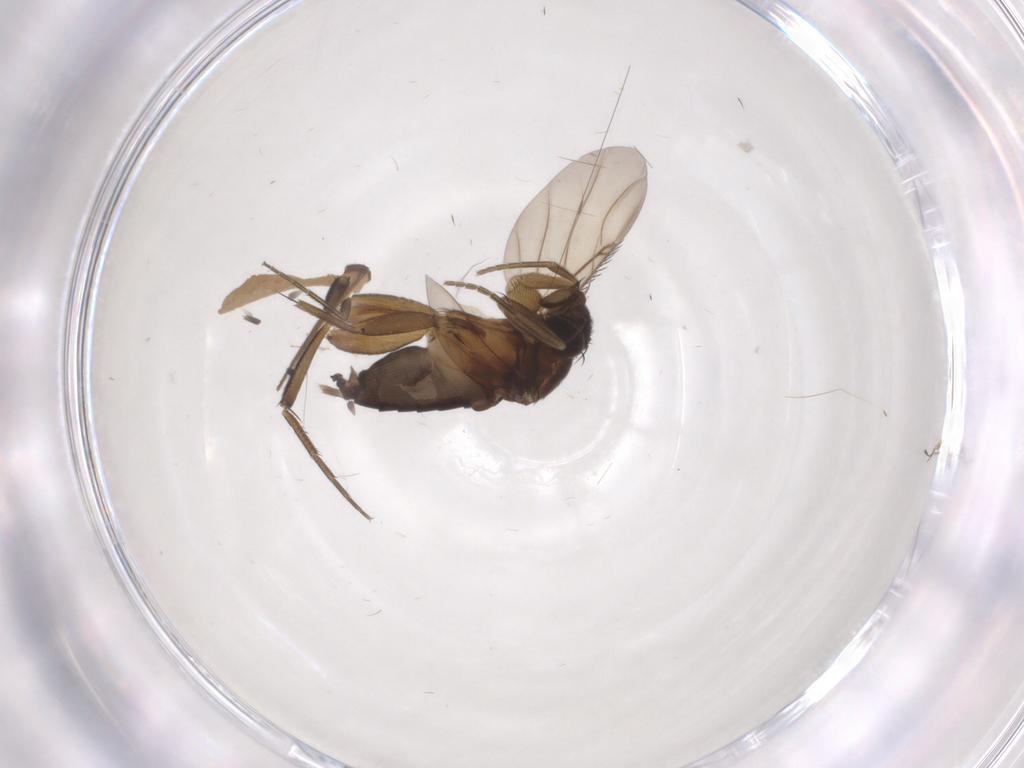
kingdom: Animalia
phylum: Arthropoda
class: Insecta
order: Diptera
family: Phoridae
